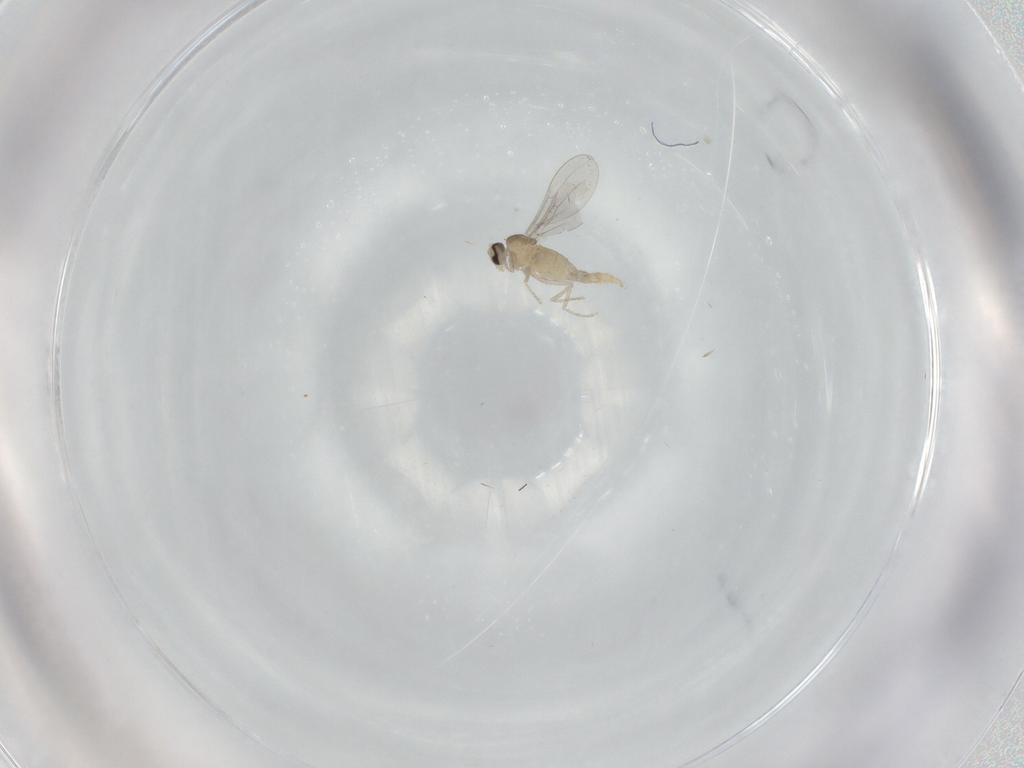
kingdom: Animalia
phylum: Arthropoda
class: Insecta
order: Diptera
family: Cecidomyiidae
